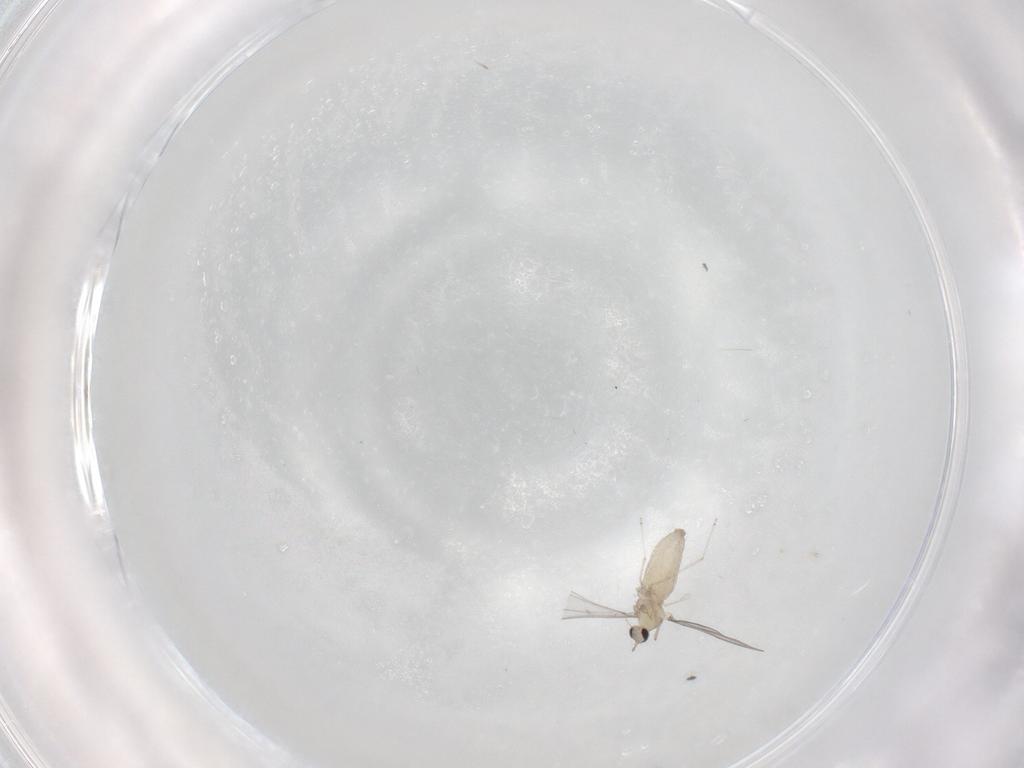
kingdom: Animalia
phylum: Arthropoda
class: Insecta
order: Diptera
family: Cecidomyiidae
